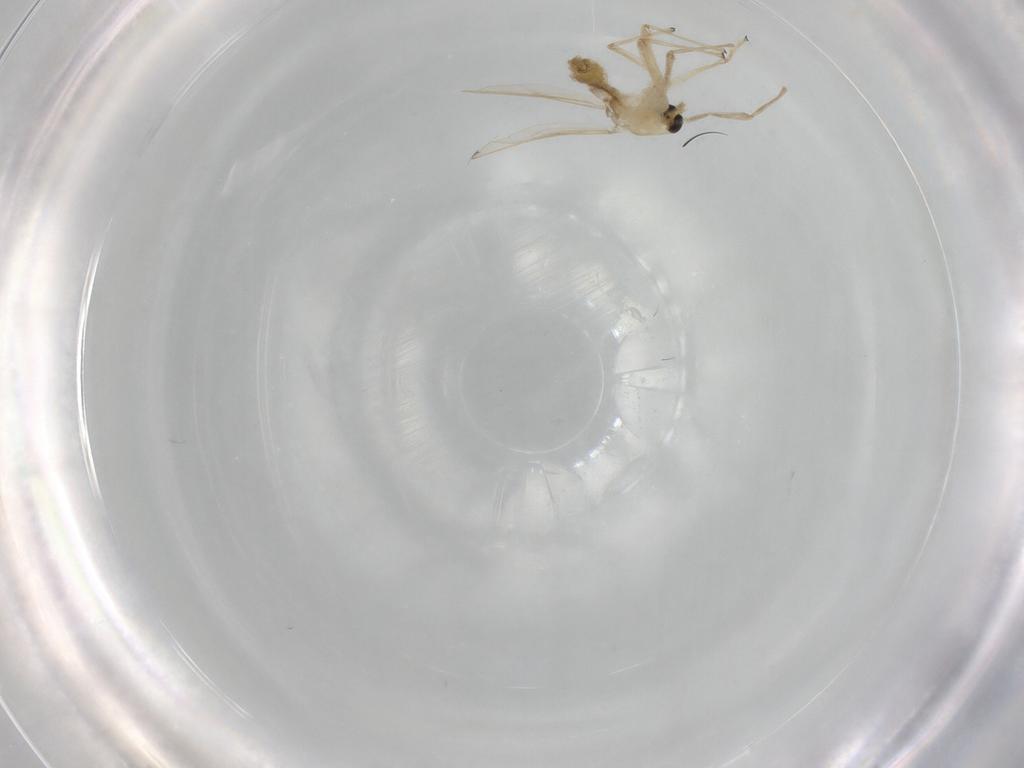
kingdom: Animalia
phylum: Arthropoda
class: Insecta
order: Diptera
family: Chironomidae
